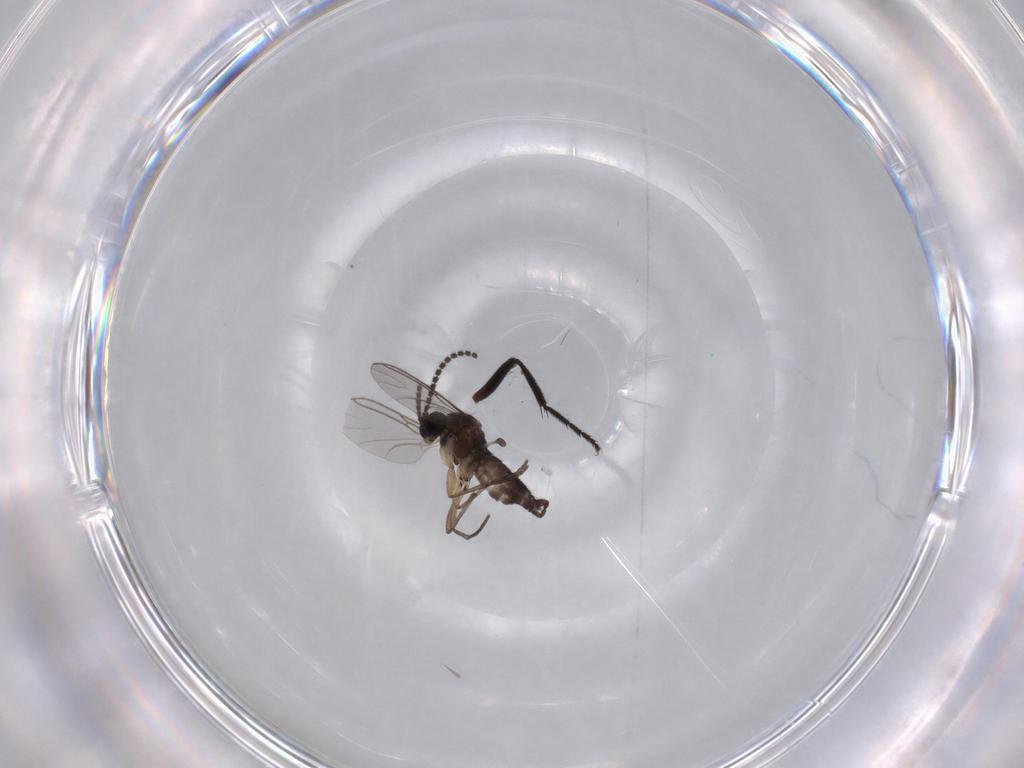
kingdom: Animalia
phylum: Arthropoda
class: Insecta
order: Diptera
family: Sciaridae
